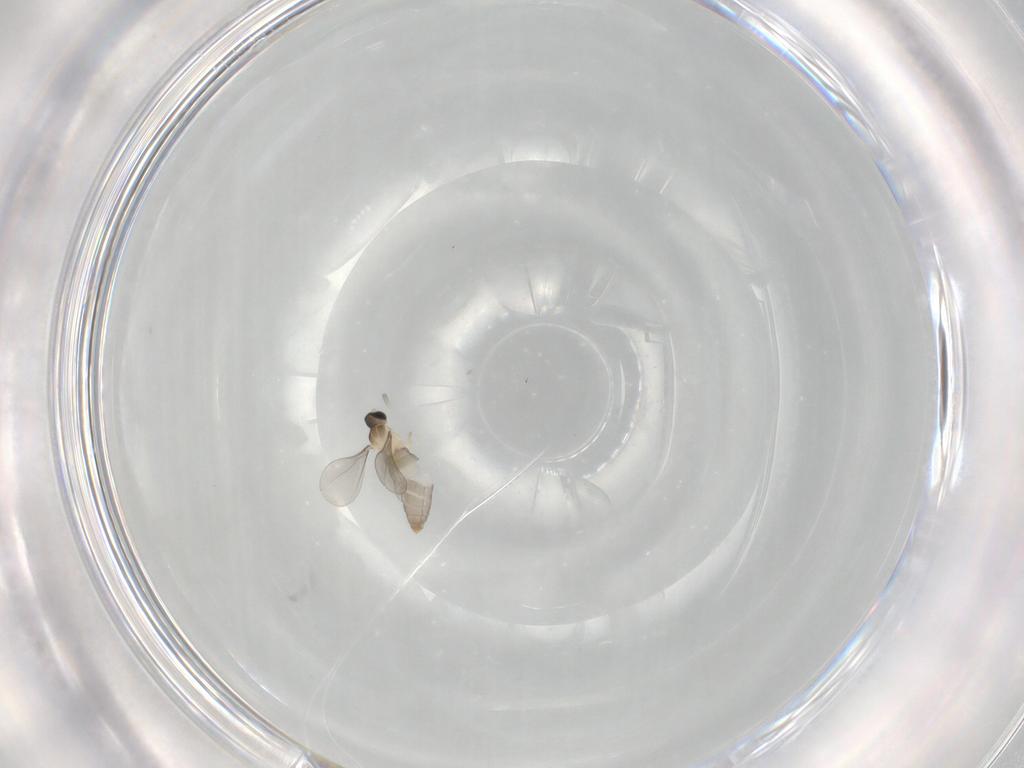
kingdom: Animalia
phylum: Arthropoda
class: Insecta
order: Diptera
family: Cecidomyiidae
